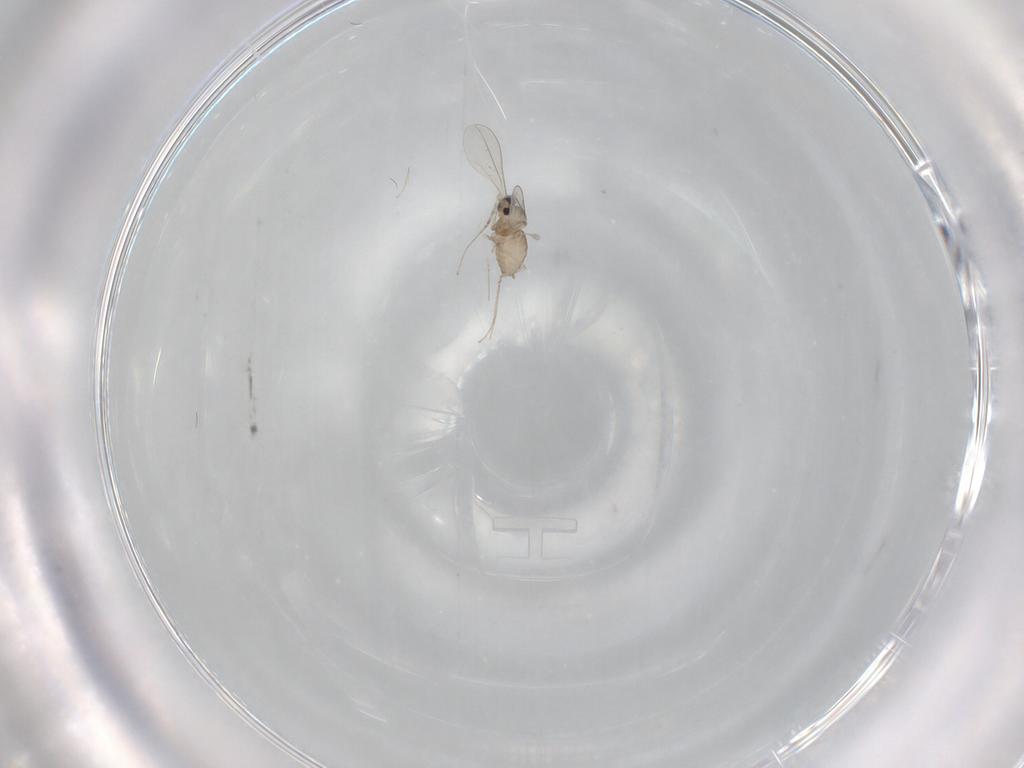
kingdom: Animalia
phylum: Arthropoda
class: Insecta
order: Diptera
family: Cecidomyiidae
